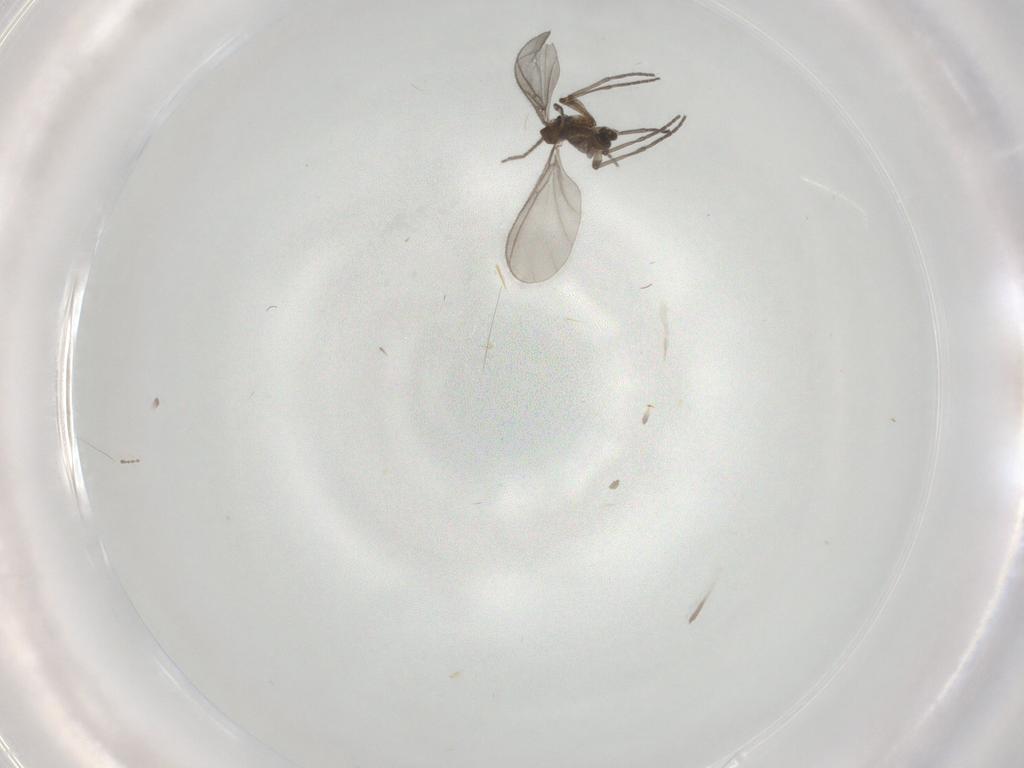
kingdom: Animalia
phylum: Arthropoda
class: Insecta
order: Diptera
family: Cecidomyiidae
